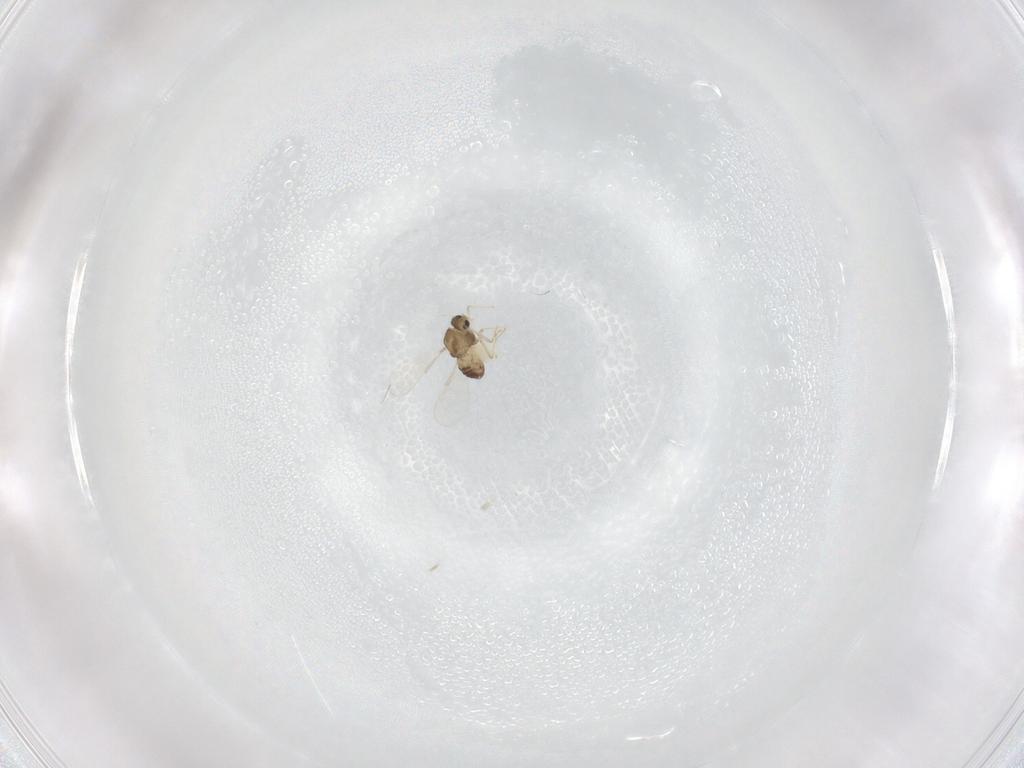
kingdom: Animalia
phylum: Arthropoda
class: Insecta
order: Diptera
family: Chironomidae
